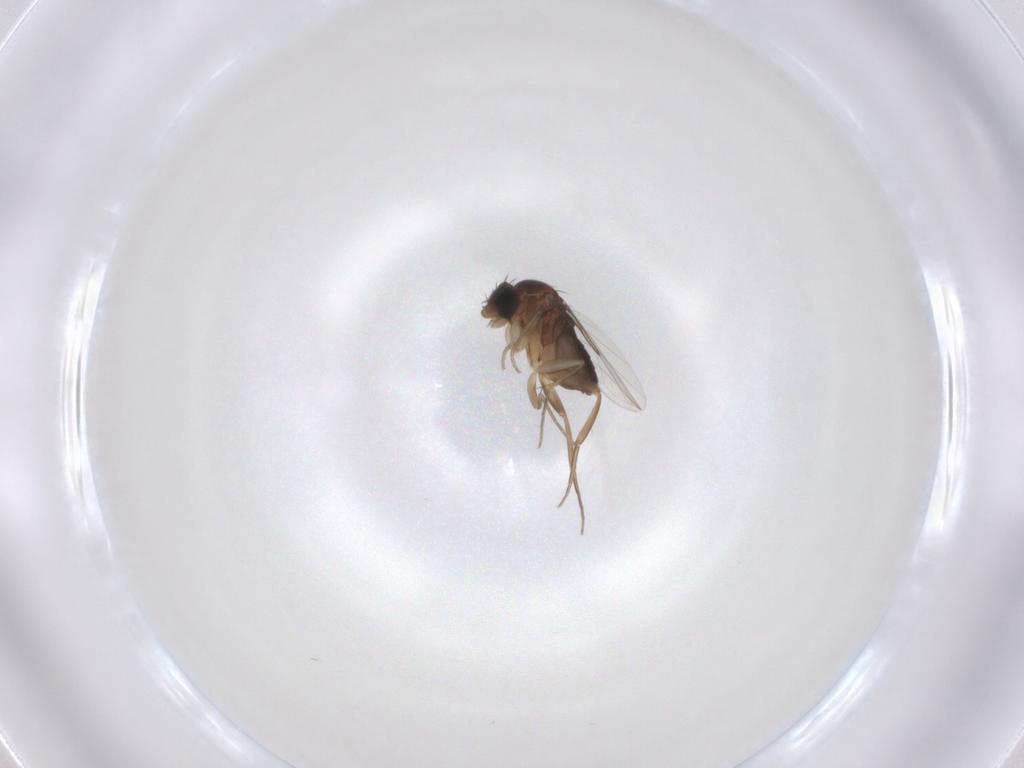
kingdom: Animalia
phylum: Arthropoda
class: Insecta
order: Diptera
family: Phoridae
